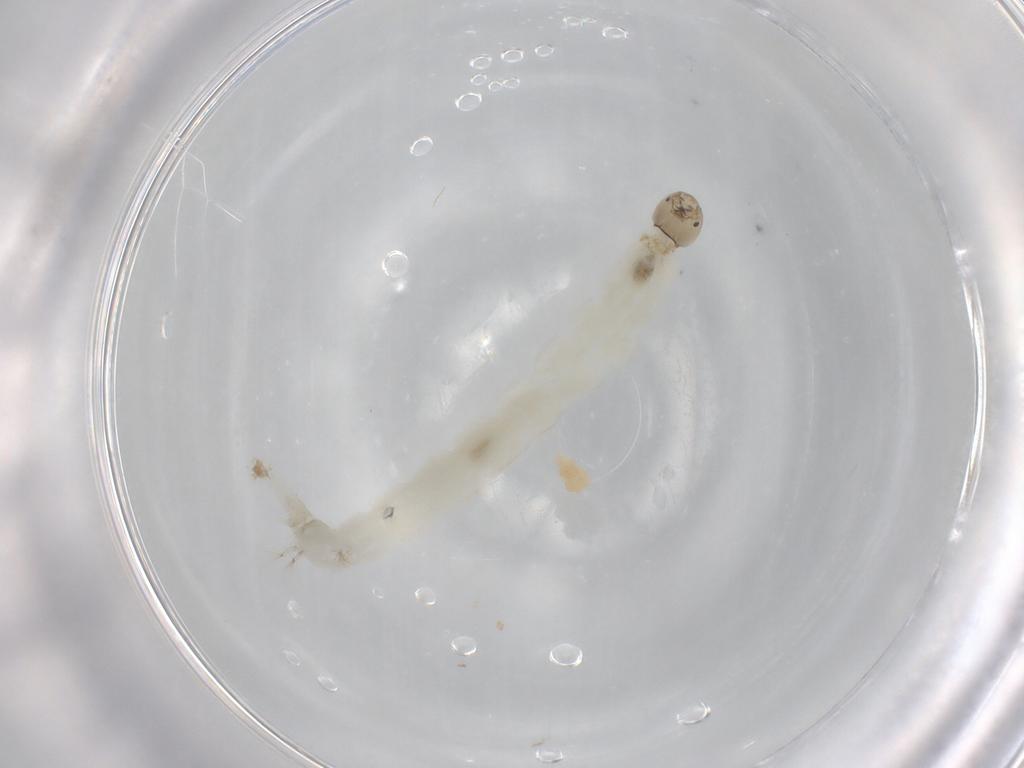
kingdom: Animalia
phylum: Arthropoda
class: Insecta
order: Diptera
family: Chironomidae
